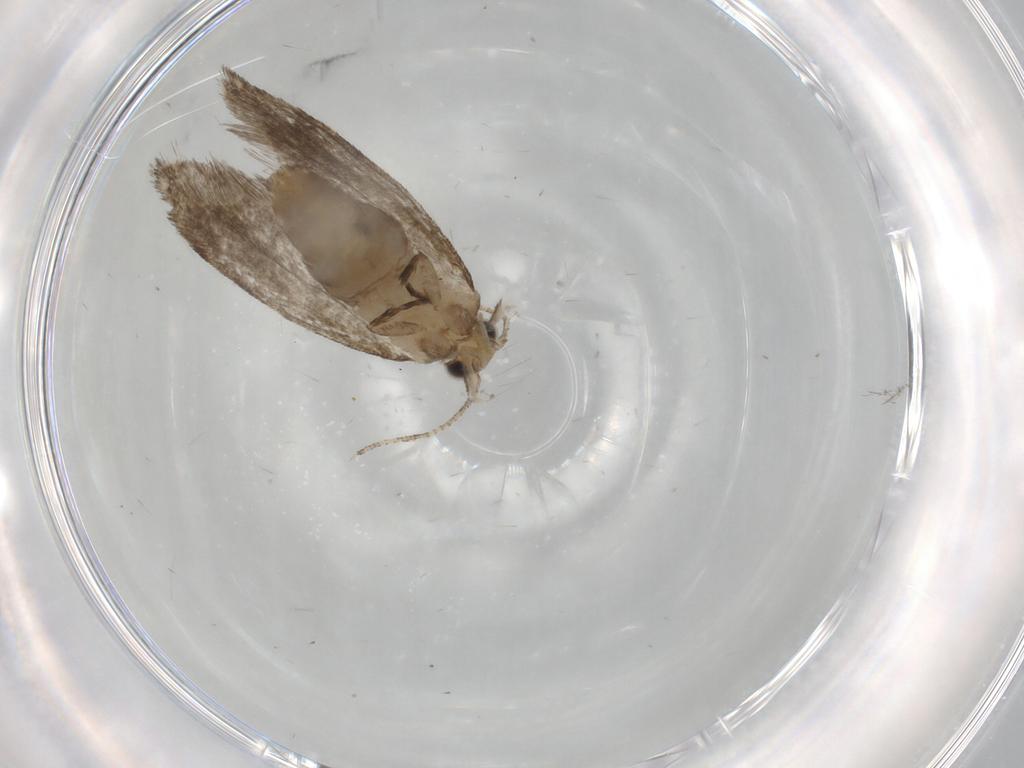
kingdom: Animalia
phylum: Arthropoda
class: Insecta
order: Lepidoptera
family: Tineidae
